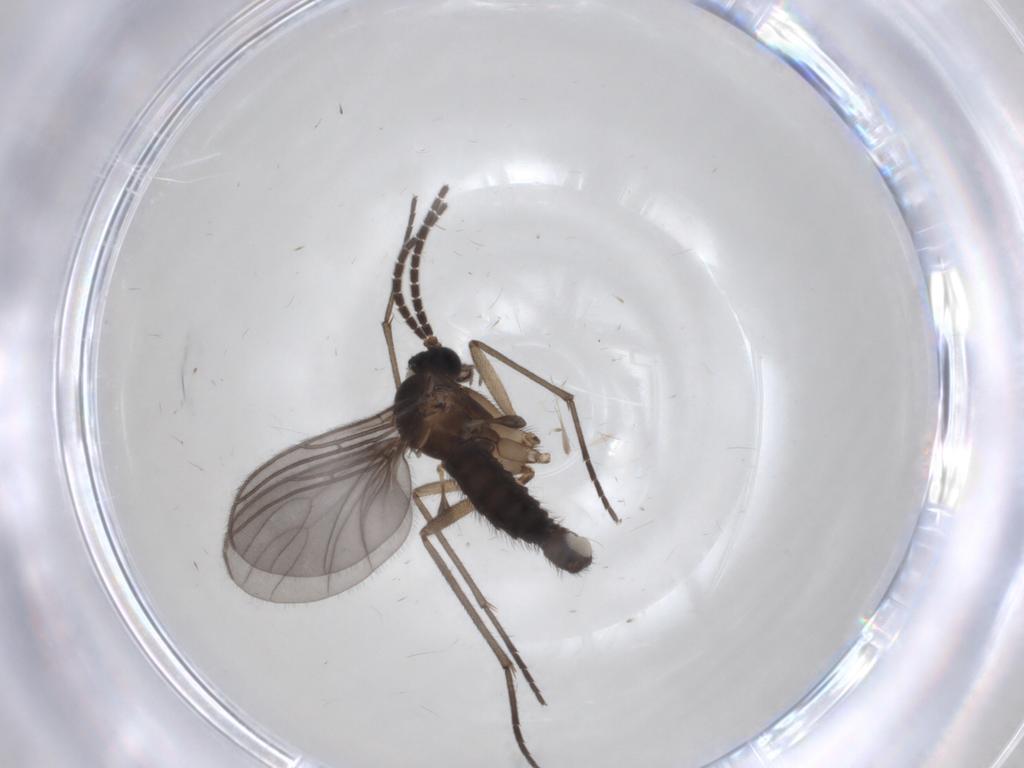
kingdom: Animalia
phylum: Arthropoda
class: Insecta
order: Diptera
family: Sciaridae
